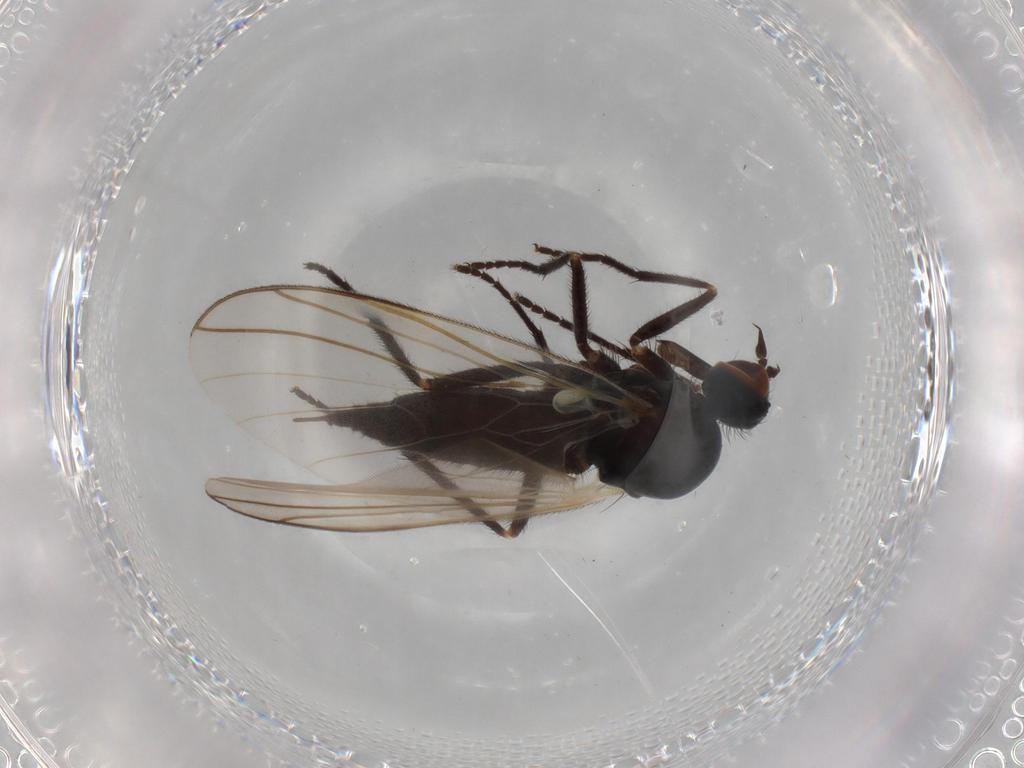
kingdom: Animalia
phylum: Arthropoda
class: Insecta
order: Diptera
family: Empididae
